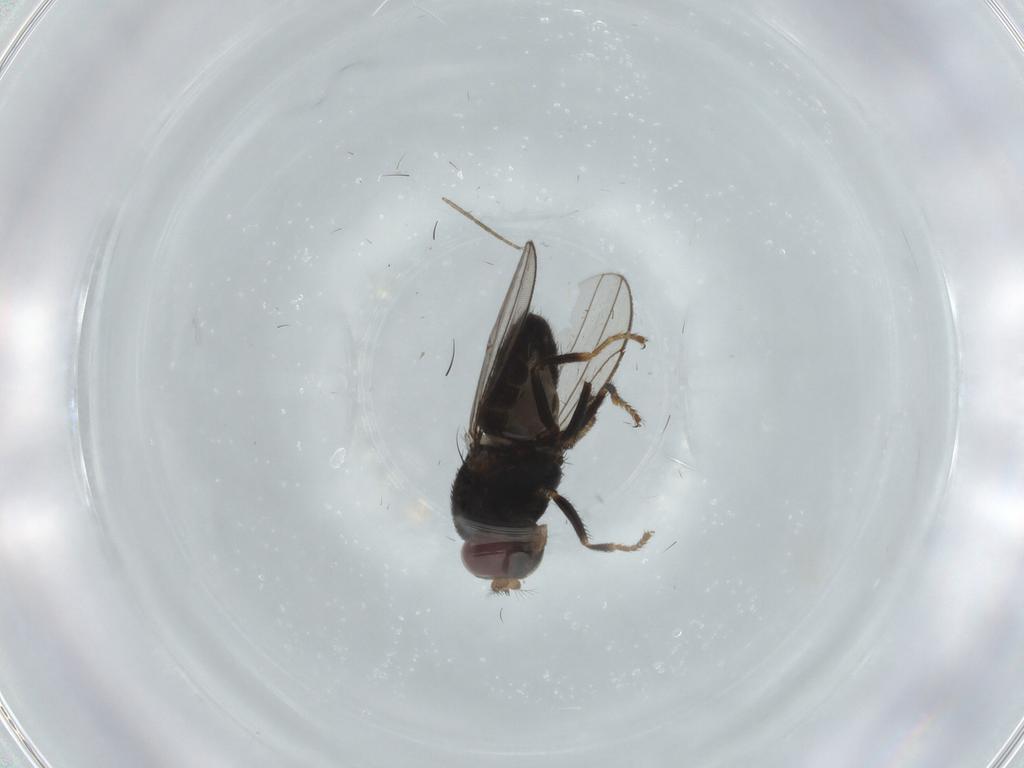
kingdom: Animalia
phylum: Arthropoda
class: Insecta
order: Diptera
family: Ephydridae
